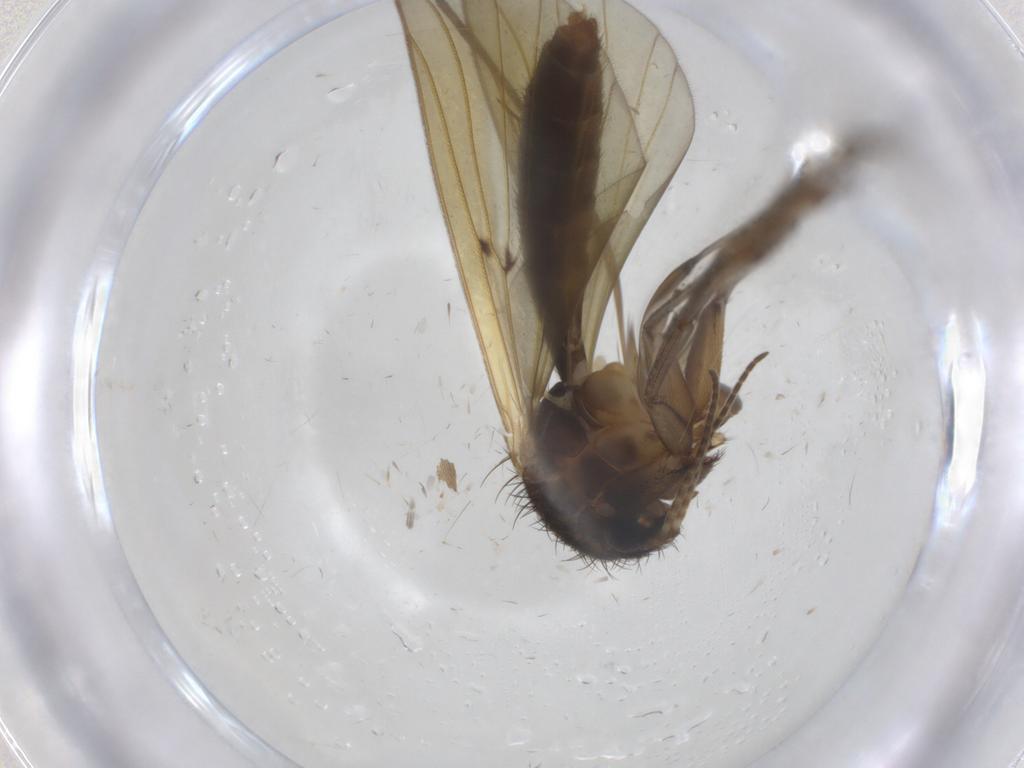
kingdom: Animalia
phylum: Arthropoda
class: Insecta
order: Diptera
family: Mycetophilidae
